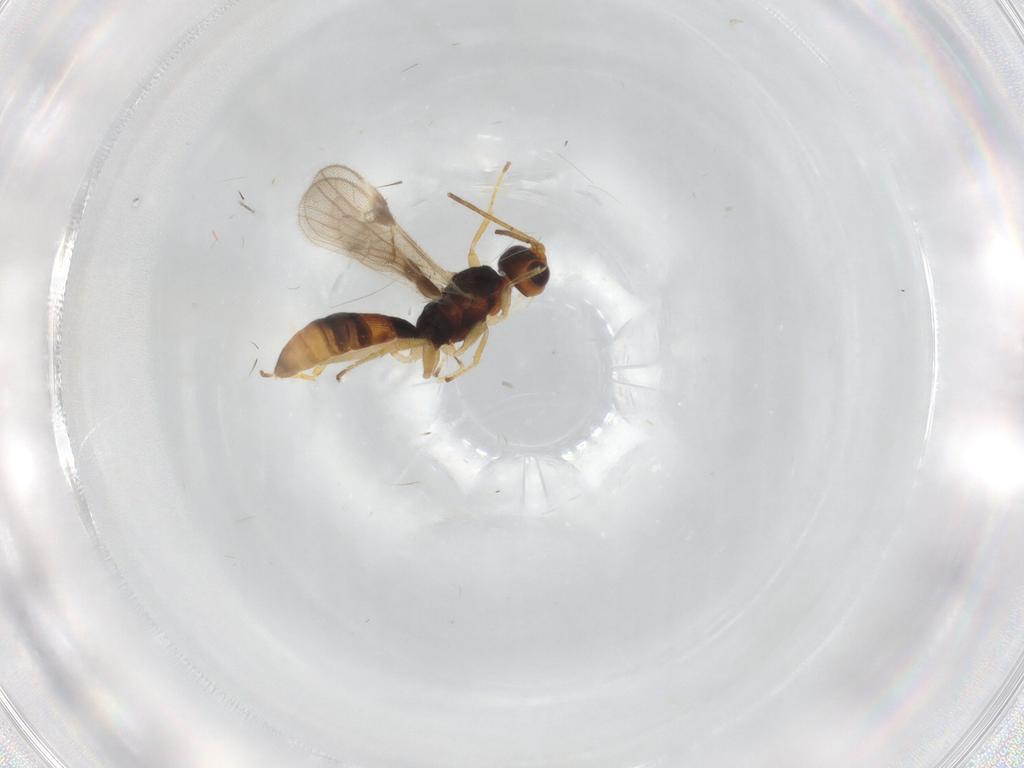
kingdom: Animalia
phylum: Arthropoda
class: Insecta
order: Hymenoptera
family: Braconidae
